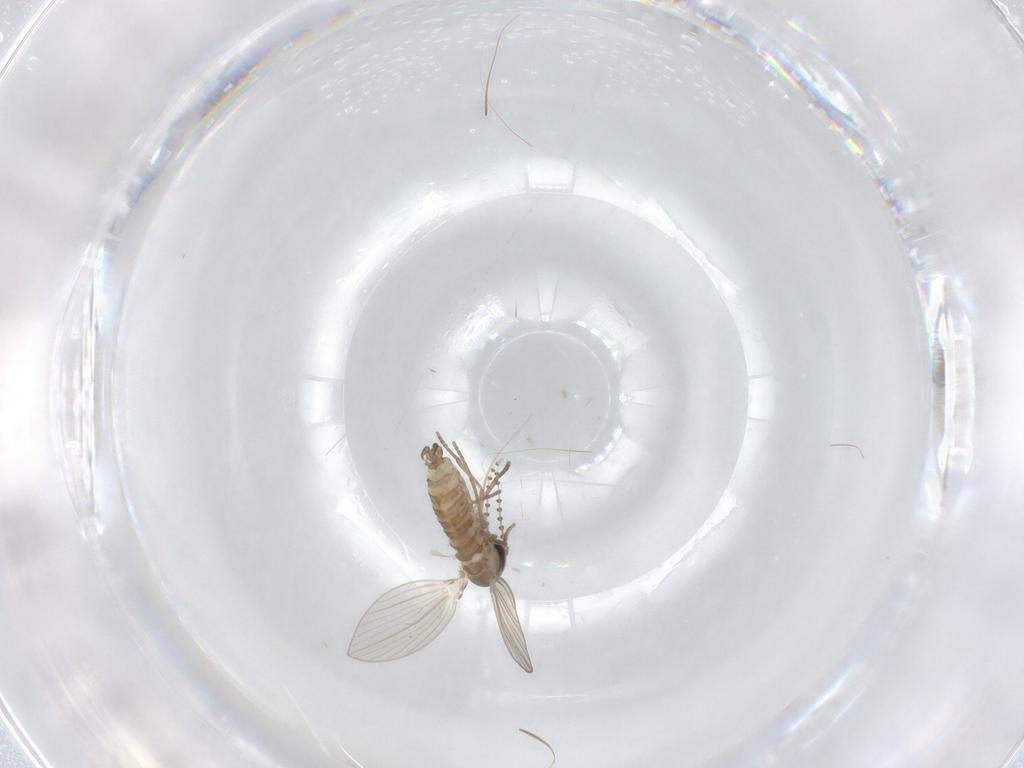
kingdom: Animalia
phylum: Arthropoda
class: Insecta
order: Diptera
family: Psychodidae
